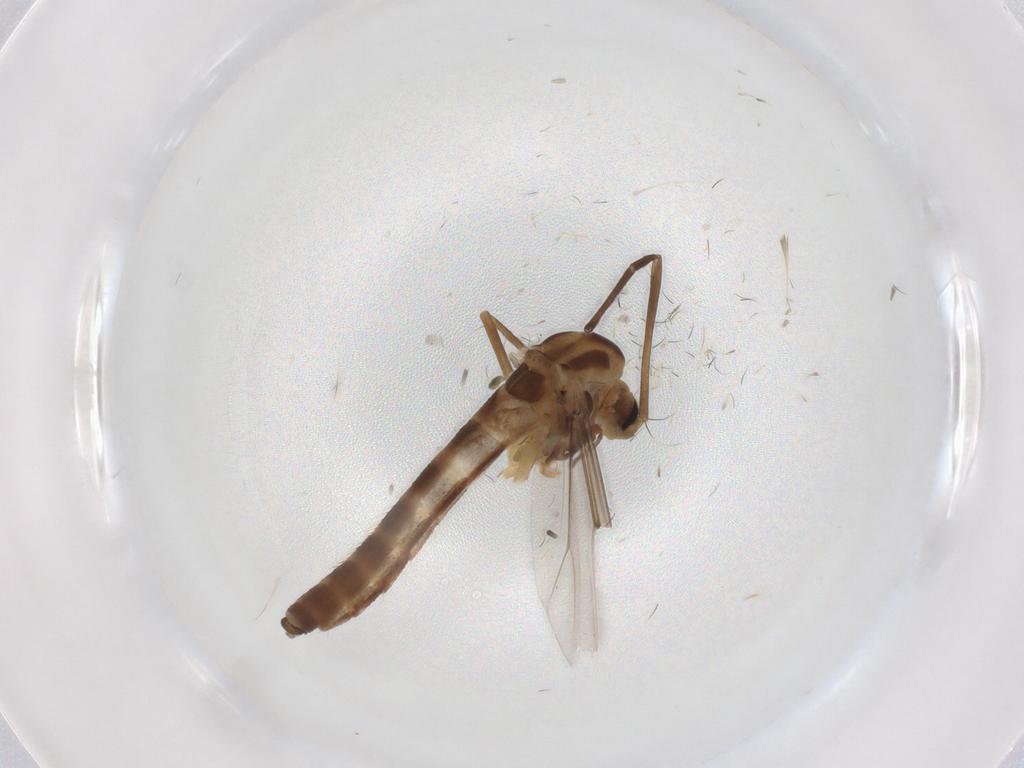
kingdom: Animalia
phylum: Arthropoda
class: Insecta
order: Diptera
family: Chironomidae
